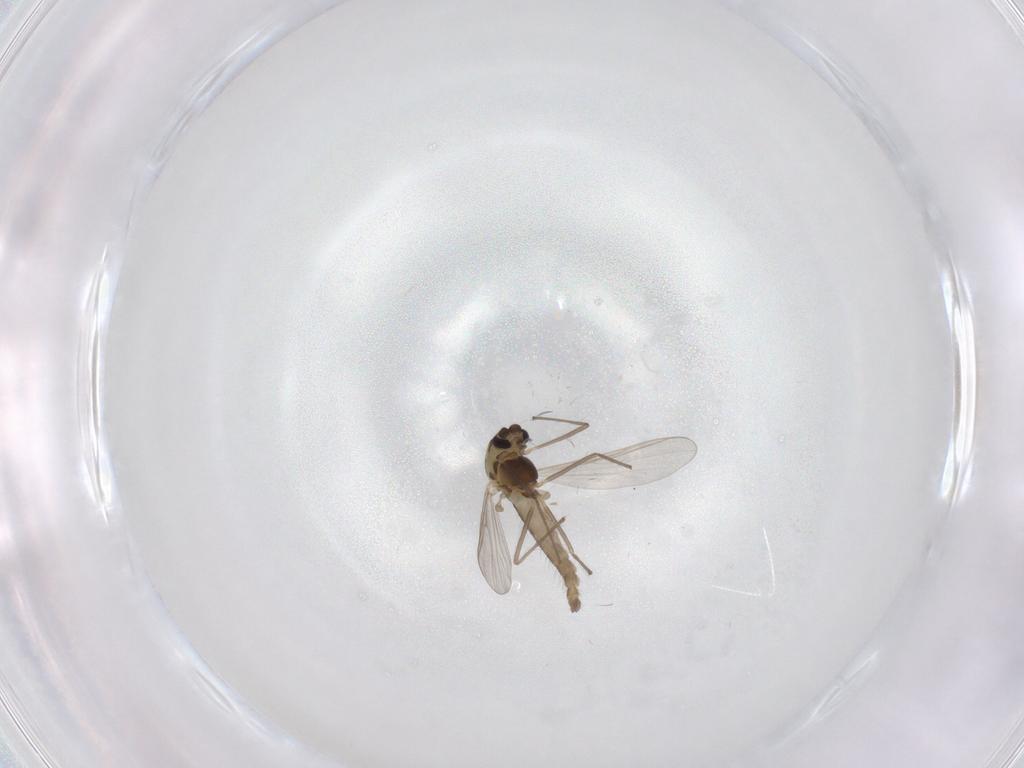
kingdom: Animalia
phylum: Arthropoda
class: Insecta
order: Diptera
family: Chironomidae
